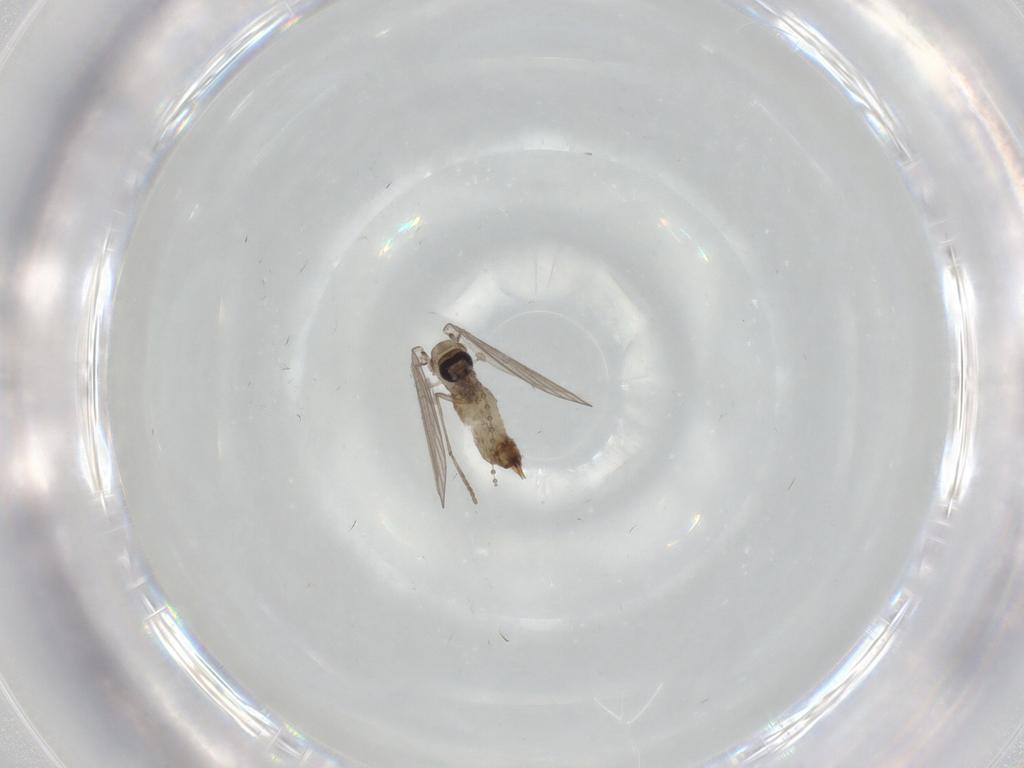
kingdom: Animalia
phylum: Arthropoda
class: Insecta
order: Diptera
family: Psychodidae
